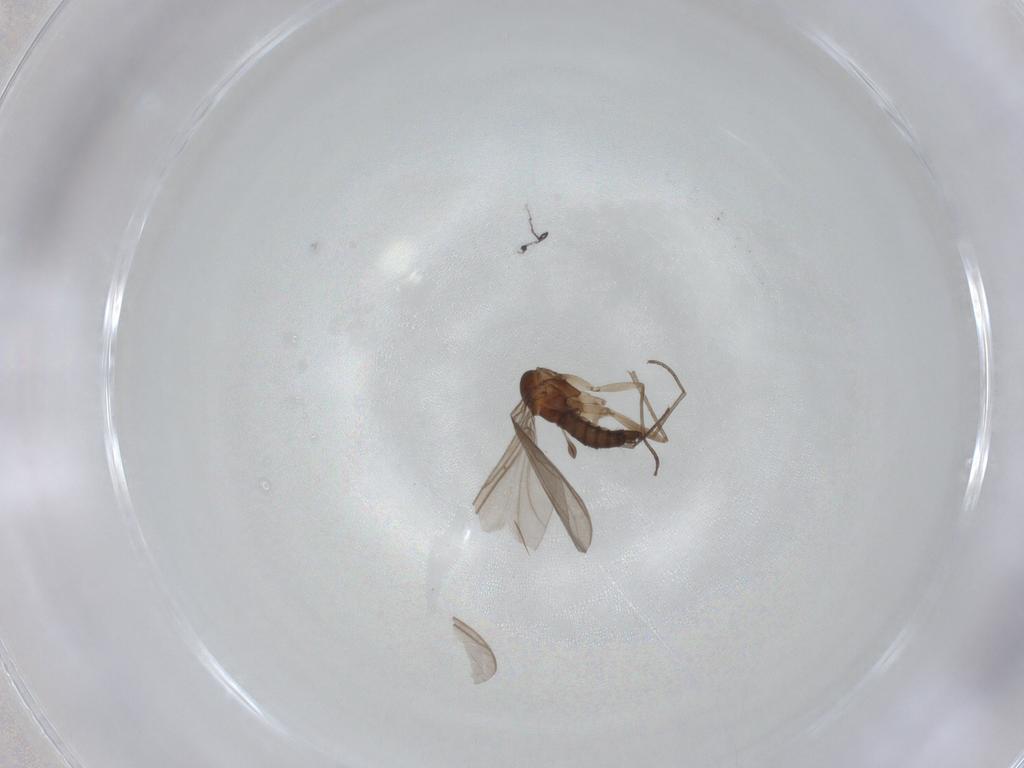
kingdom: Animalia
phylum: Arthropoda
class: Insecta
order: Diptera
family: Sciaridae
